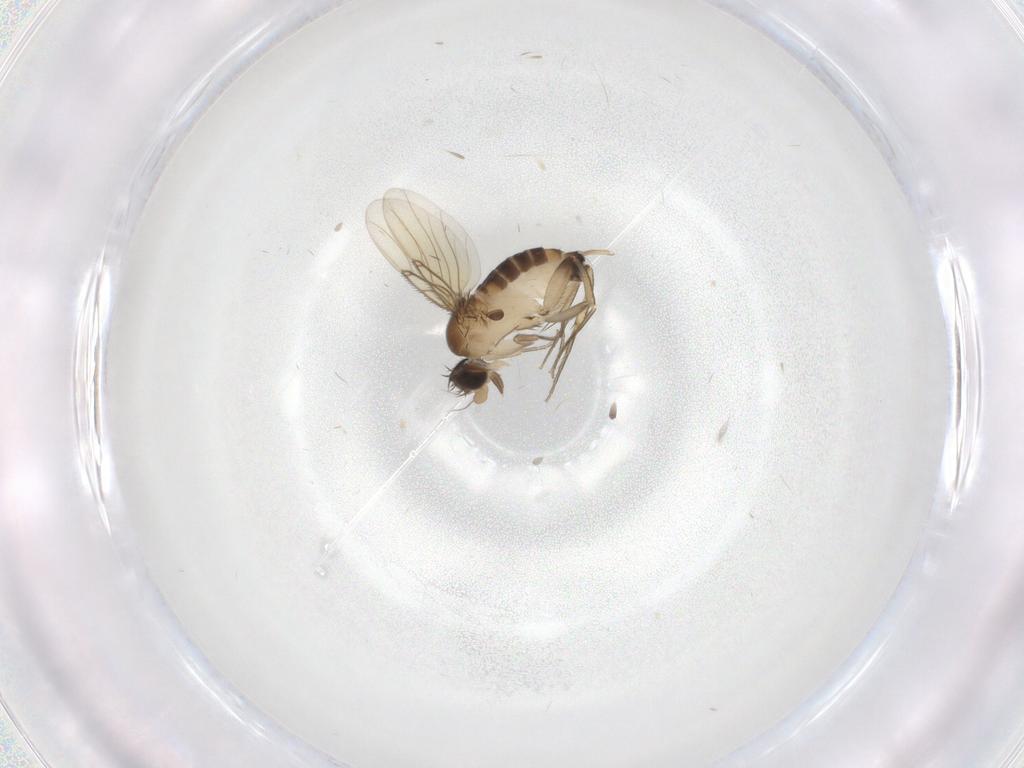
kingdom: Animalia
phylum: Arthropoda
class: Insecta
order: Diptera
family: Phoridae
